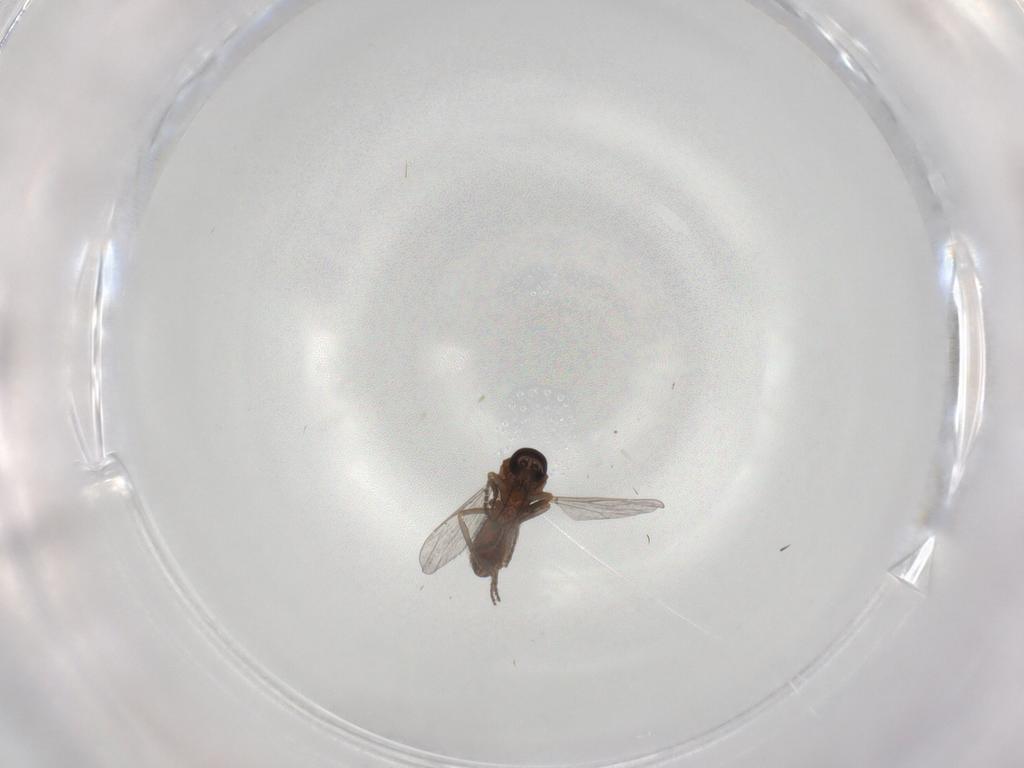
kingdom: Animalia
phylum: Arthropoda
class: Insecta
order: Diptera
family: Ceratopogonidae
